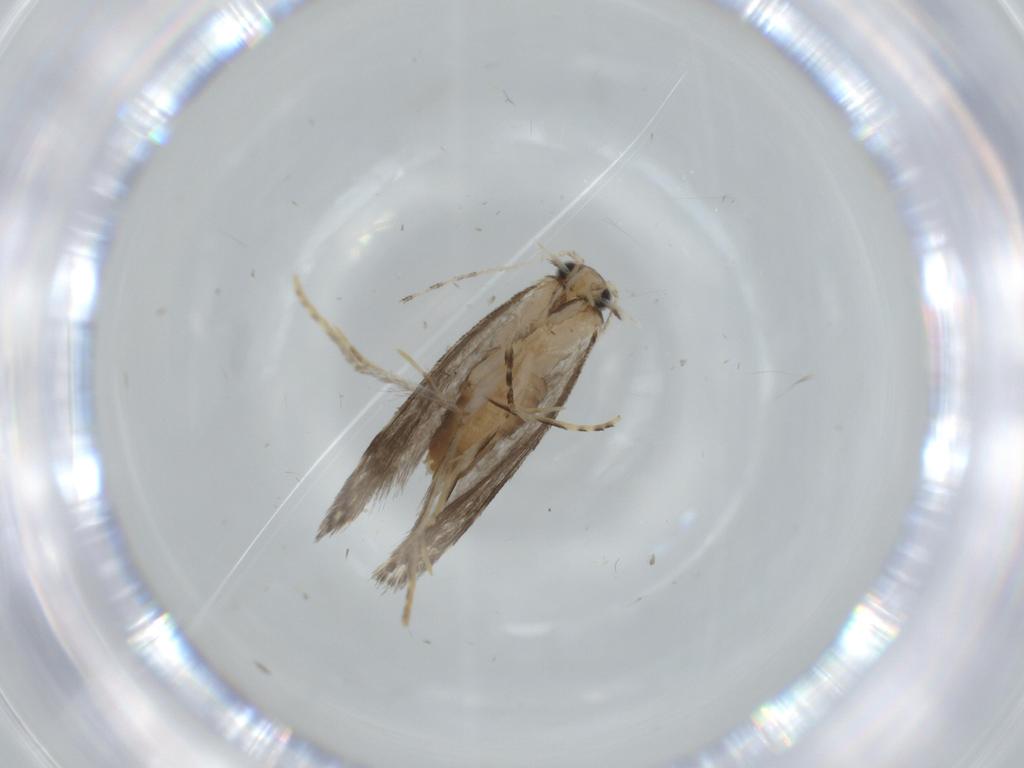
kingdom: Animalia
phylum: Arthropoda
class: Insecta
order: Lepidoptera
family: Tineidae
